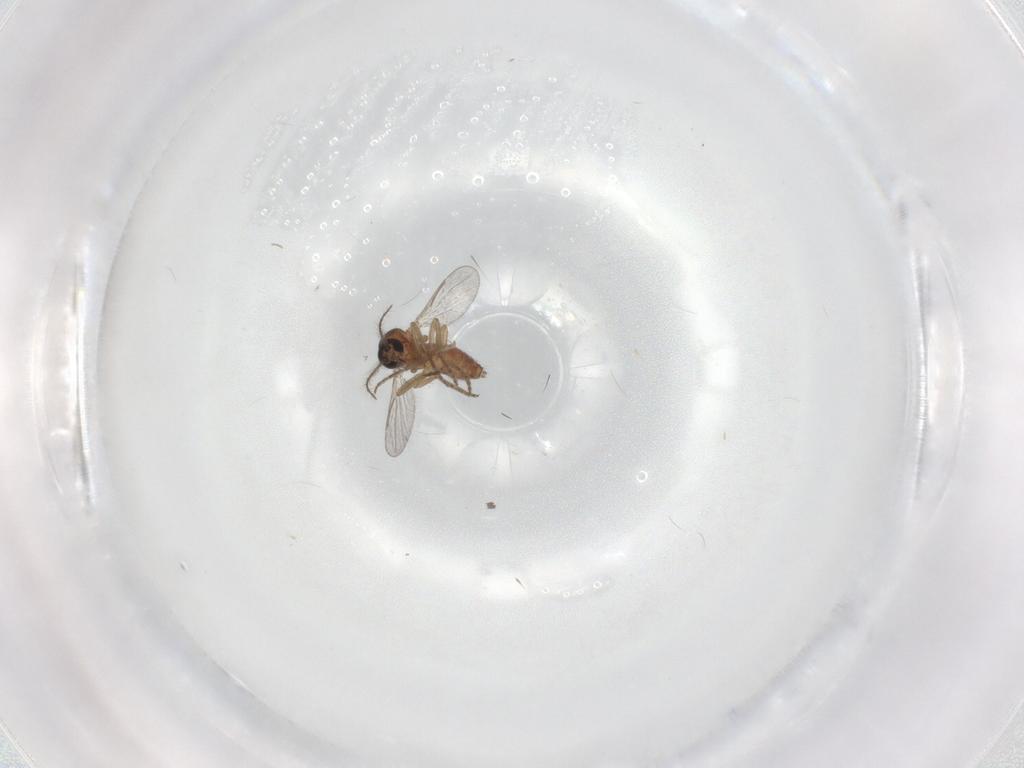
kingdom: Animalia
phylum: Arthropoda
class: Insecta
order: Diptera
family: Ceratopogonidae
